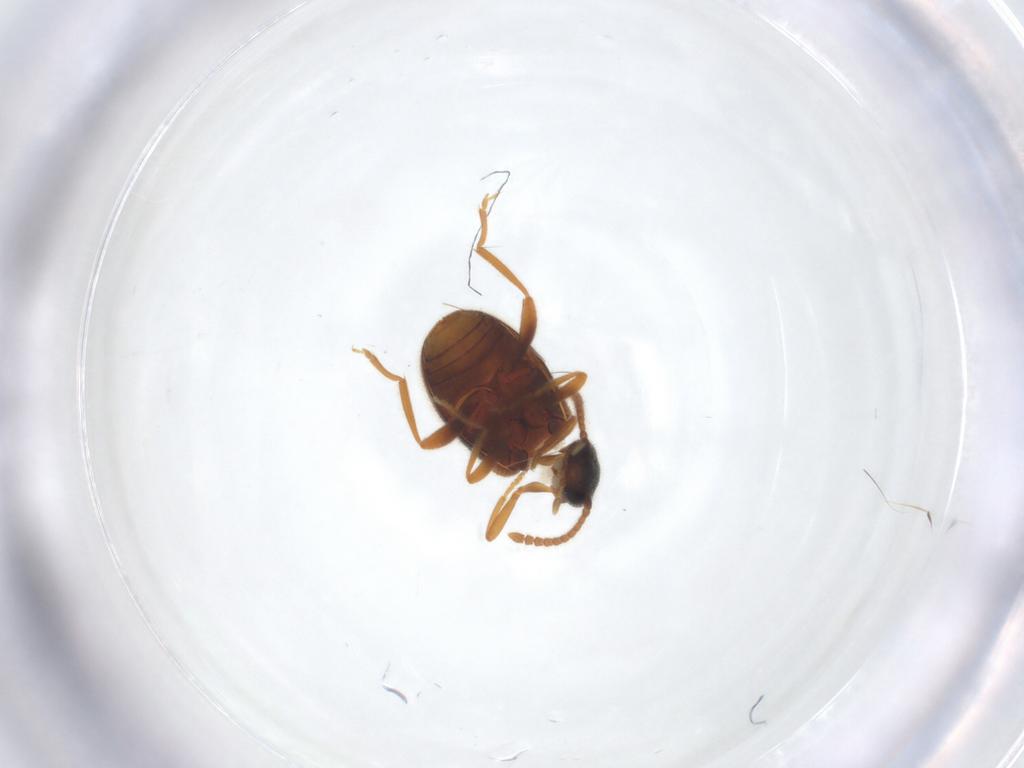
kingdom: Animalia
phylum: Arthropoda
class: Insecta
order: Coleoptera
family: Aderidae
